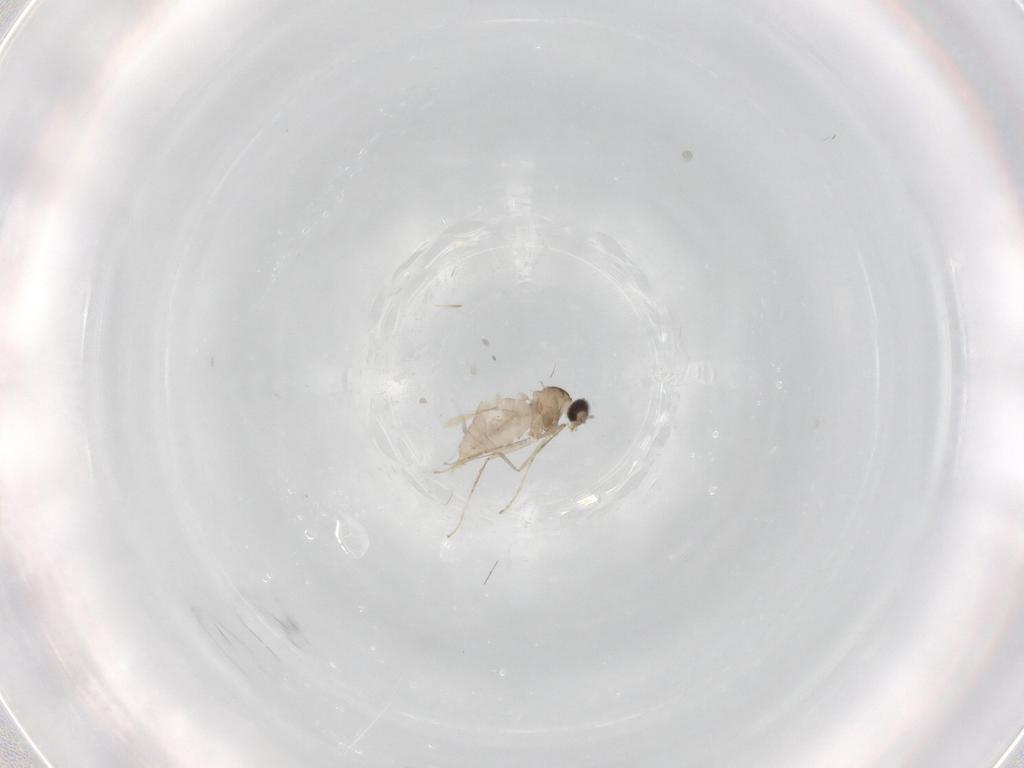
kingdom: Animalia
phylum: Arthropoda
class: Insecta
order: Diptera
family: Cecidomyiidae
